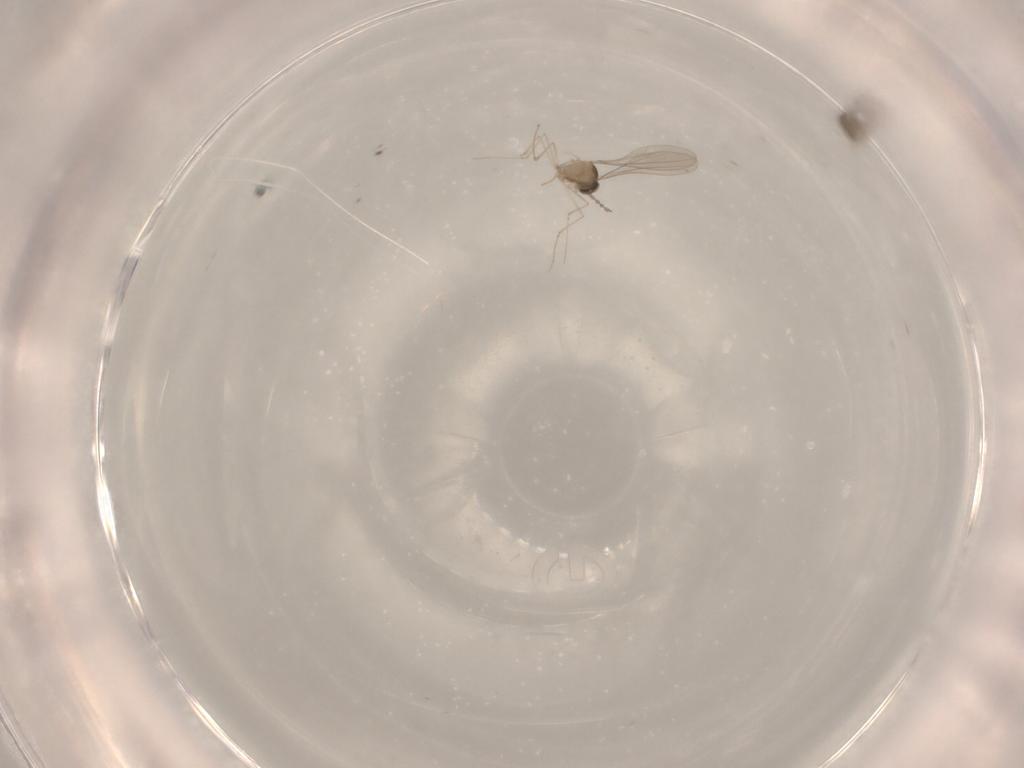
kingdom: Animalia
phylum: Arthropoda
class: Insecta
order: Diptera
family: Cecidomyiidae
